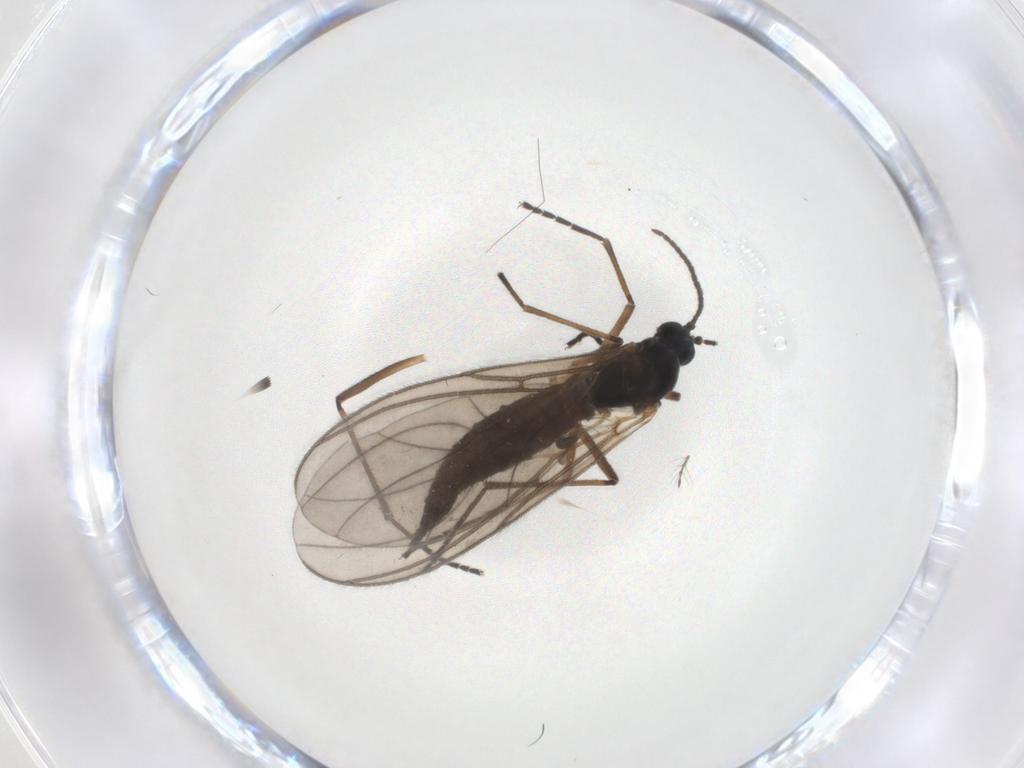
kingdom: Animalia
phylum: Arthropoda
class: Insecta
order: Diptera
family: Sciaridae
